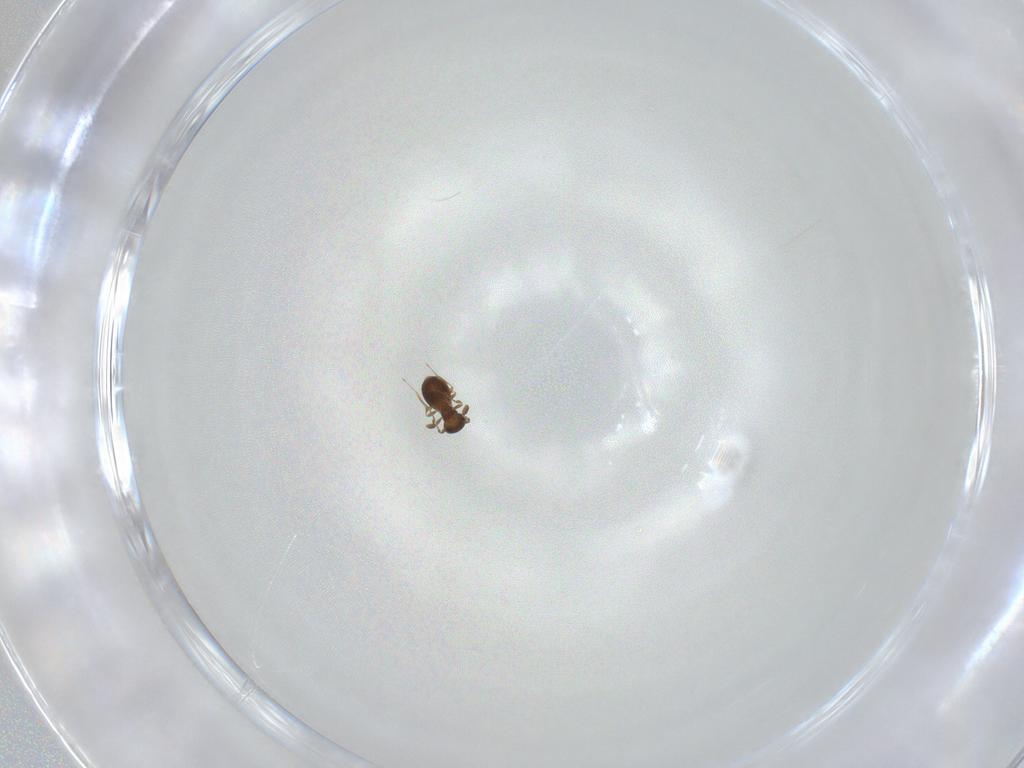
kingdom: Animalia
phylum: Arthropoda
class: Insecta
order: Hymenoptera
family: Platygastridae
